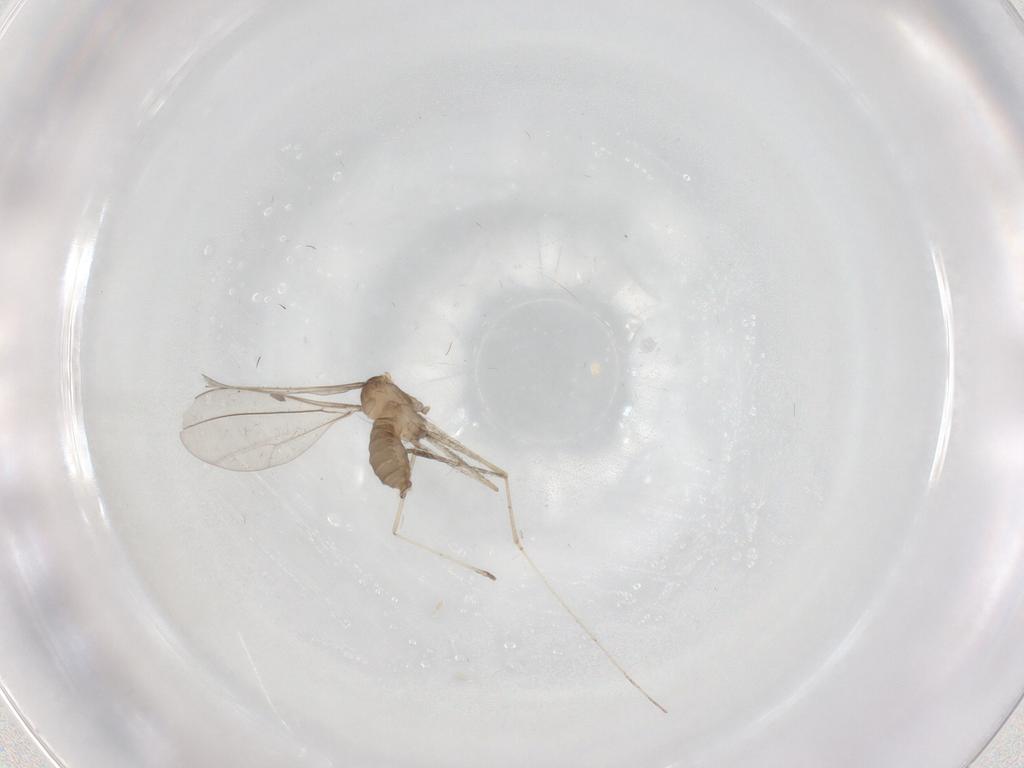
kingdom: Animalia
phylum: Arthropoda
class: Insecta
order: Diptera
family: Cecidomyiidae
